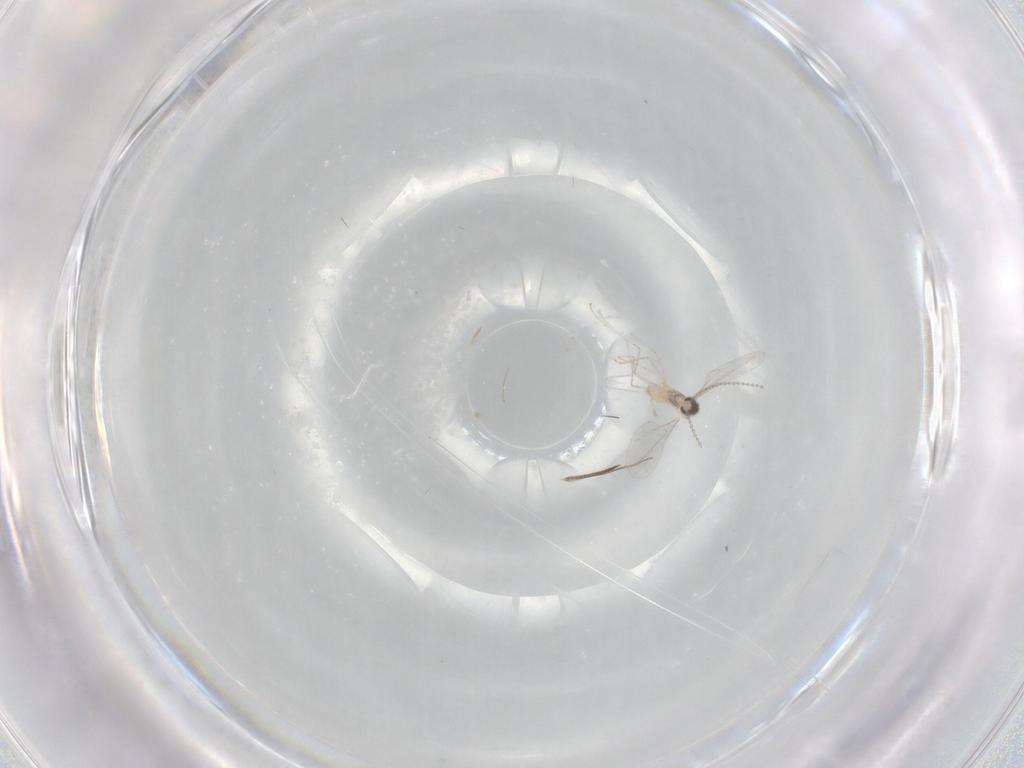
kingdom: Animalia
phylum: Arthropoda
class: Insecta
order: Diptera
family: Cecidomyiidae
